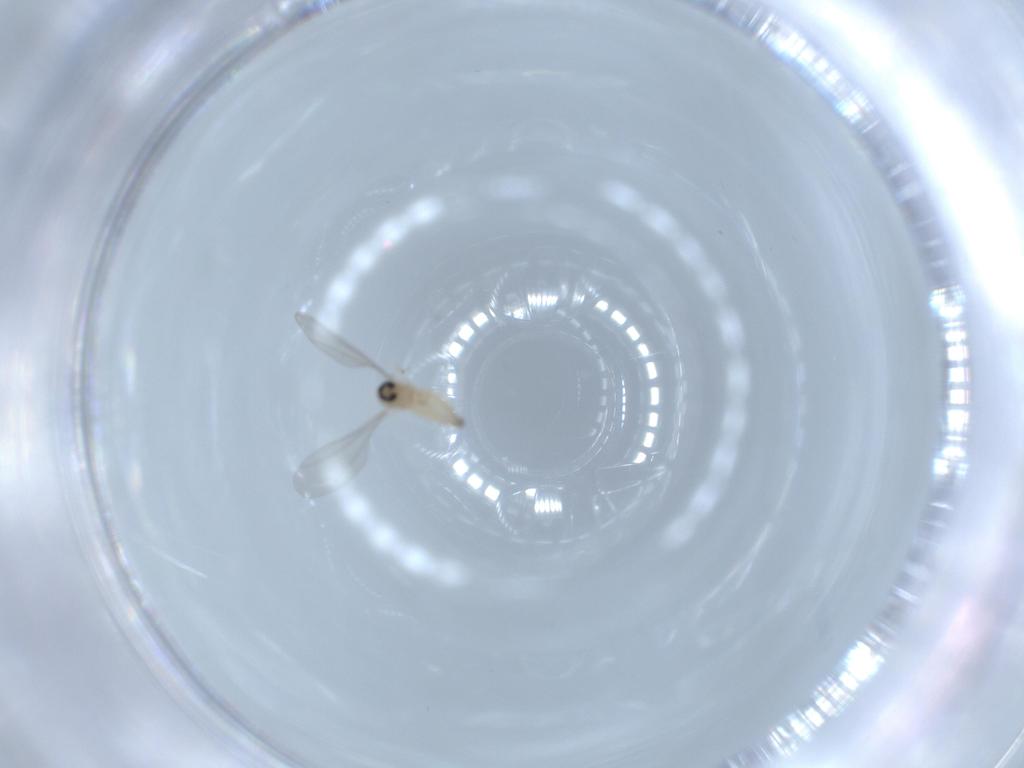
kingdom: Animalia
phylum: Arthropoda
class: Insecta
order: Diptera
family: Cecidomyiidae
